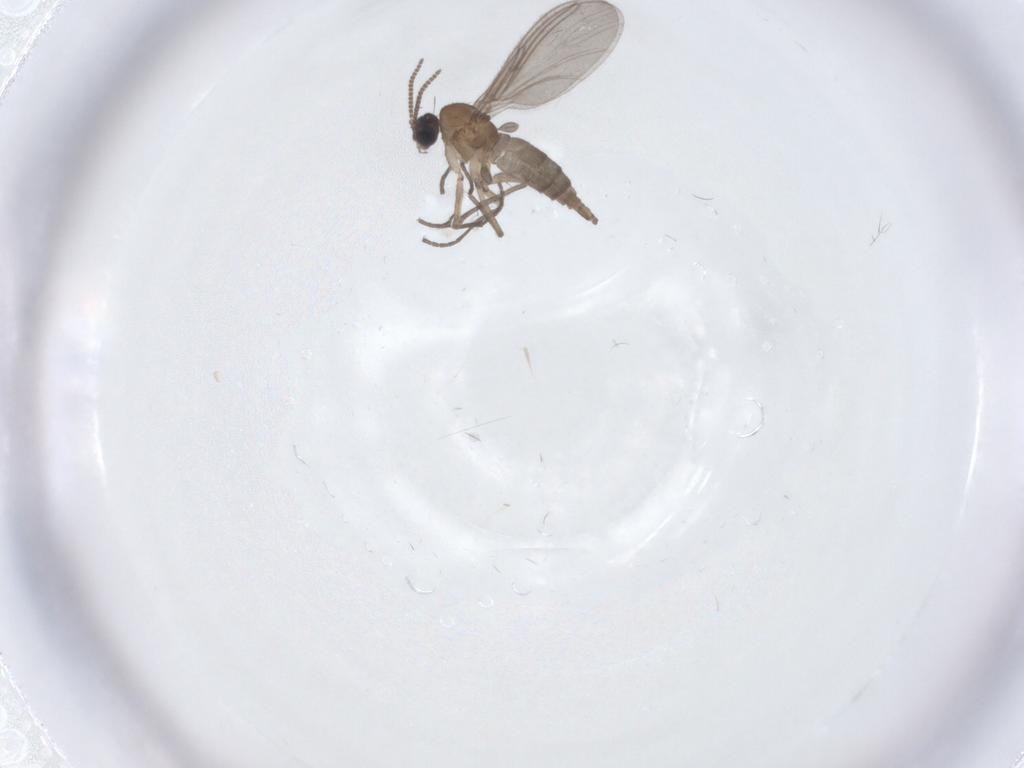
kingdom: Animalia
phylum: Arthropoda
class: Insecta
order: Diptera
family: Sciaridae
